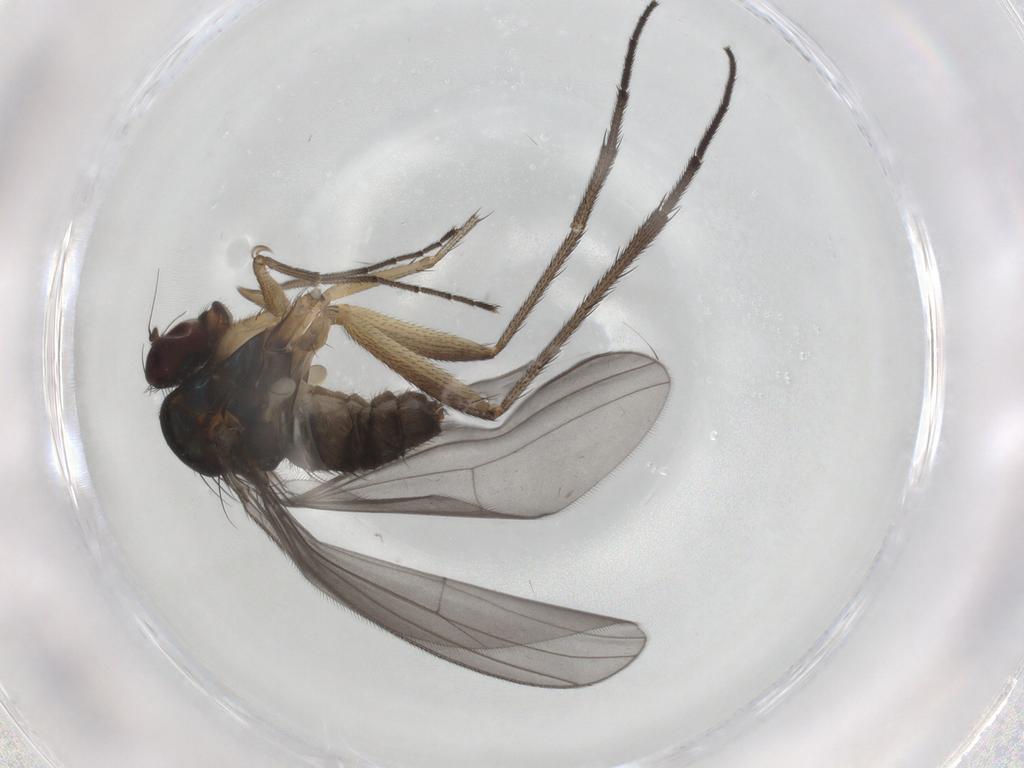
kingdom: Animalia
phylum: Arthropoda
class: Insecta
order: Diptera
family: Dolichopodidae
